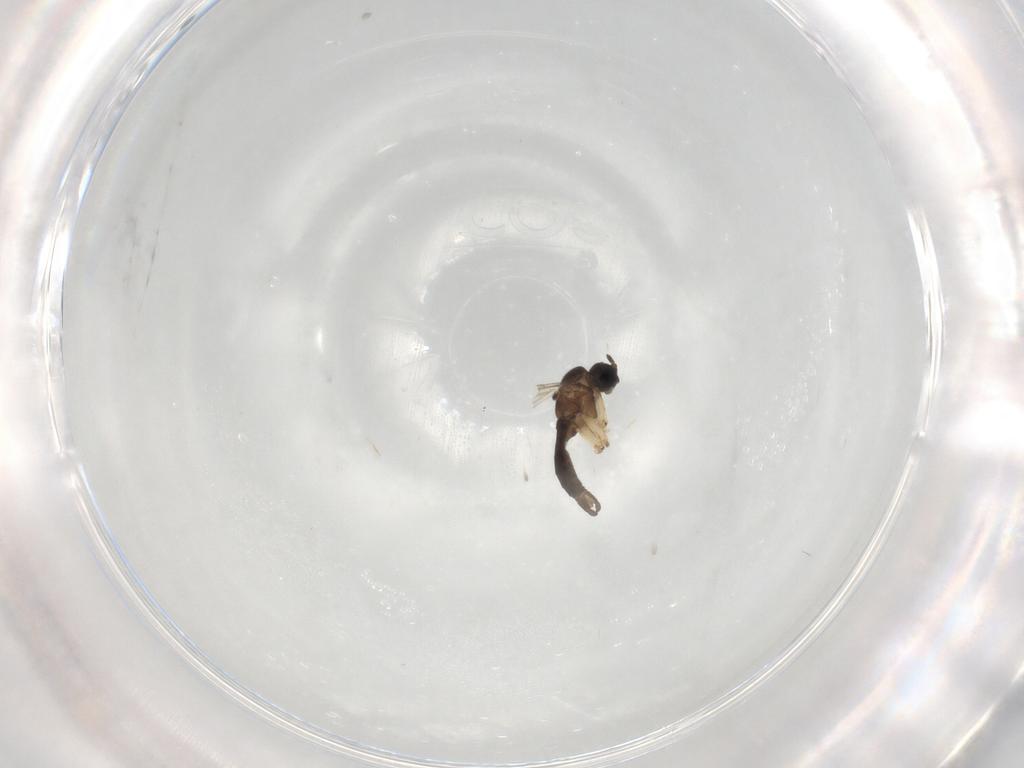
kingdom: Animalia
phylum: Arthropoda
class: Insecta
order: Diptera
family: Sciaridae
